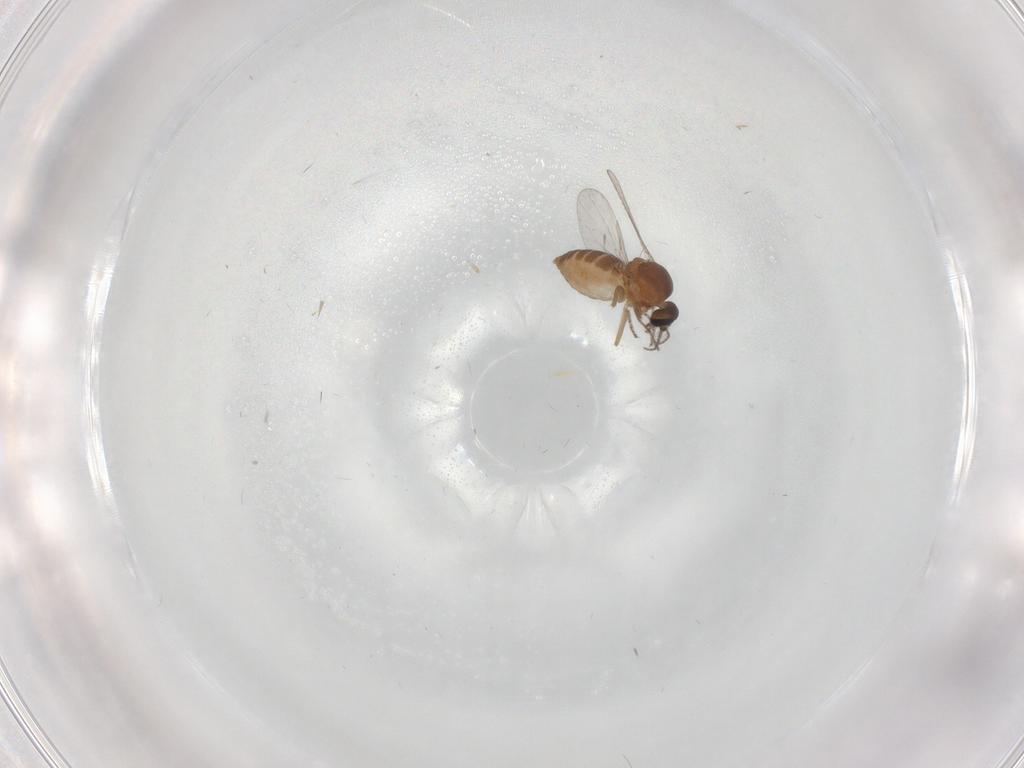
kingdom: Animalia
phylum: Arthropoda
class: Insecta
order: Diptera
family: Ceratopogonidae
